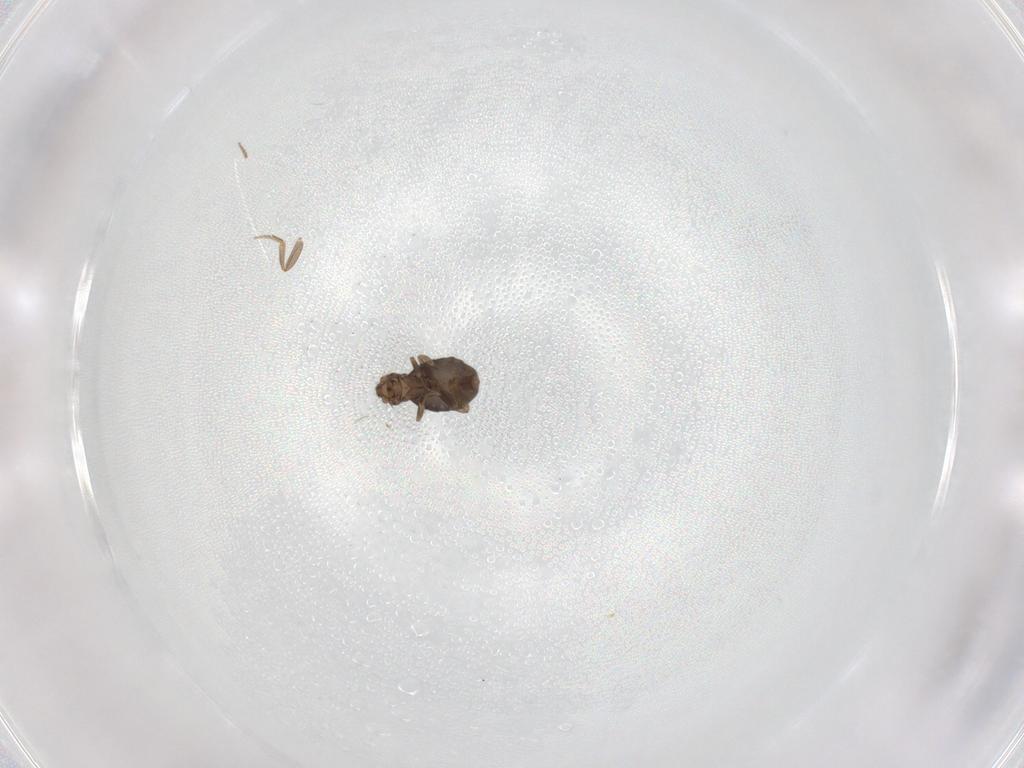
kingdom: Animalia
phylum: Arthropoda
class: Insecta
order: Diptera
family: Phoridae
